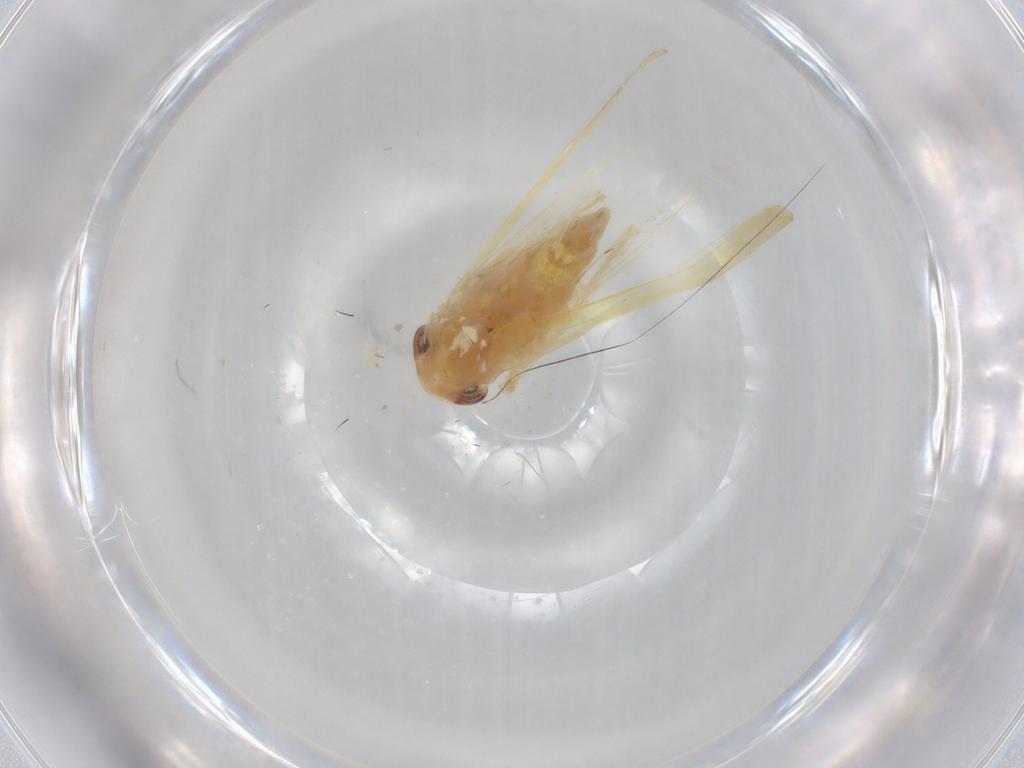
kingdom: Animalia
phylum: Arthropoda
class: Insecta
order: Hemiptera
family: Cicadellidae
